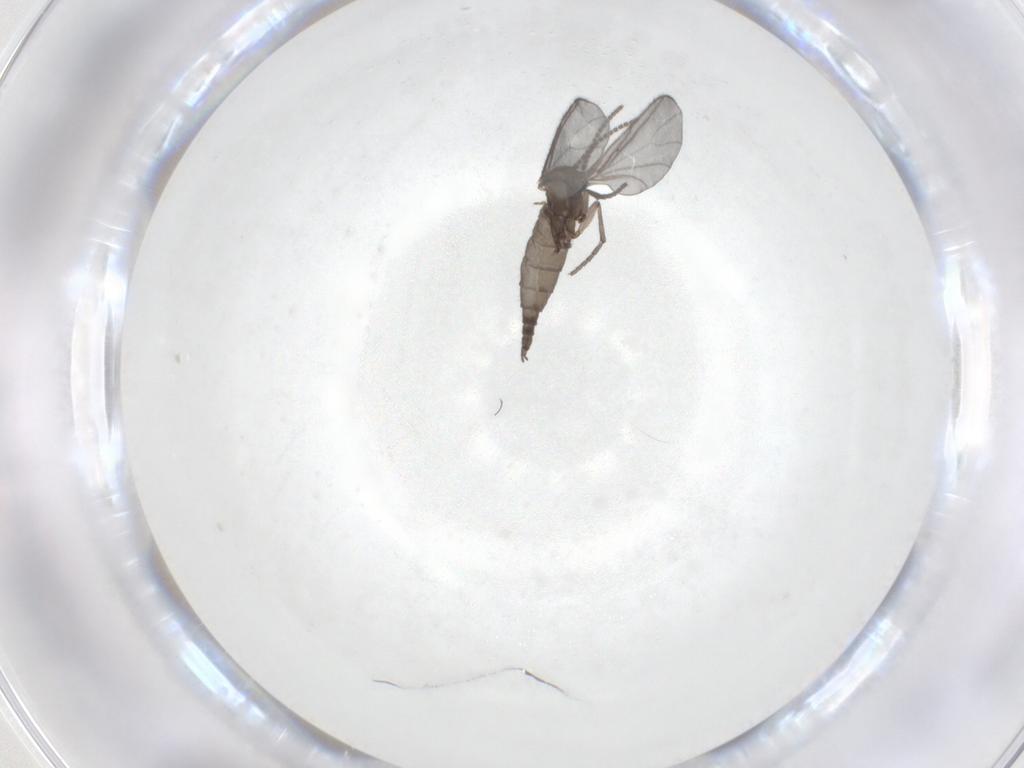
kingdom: Animalia
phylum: Arthropoda
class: Insecta
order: Diptera
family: Sciaridae
